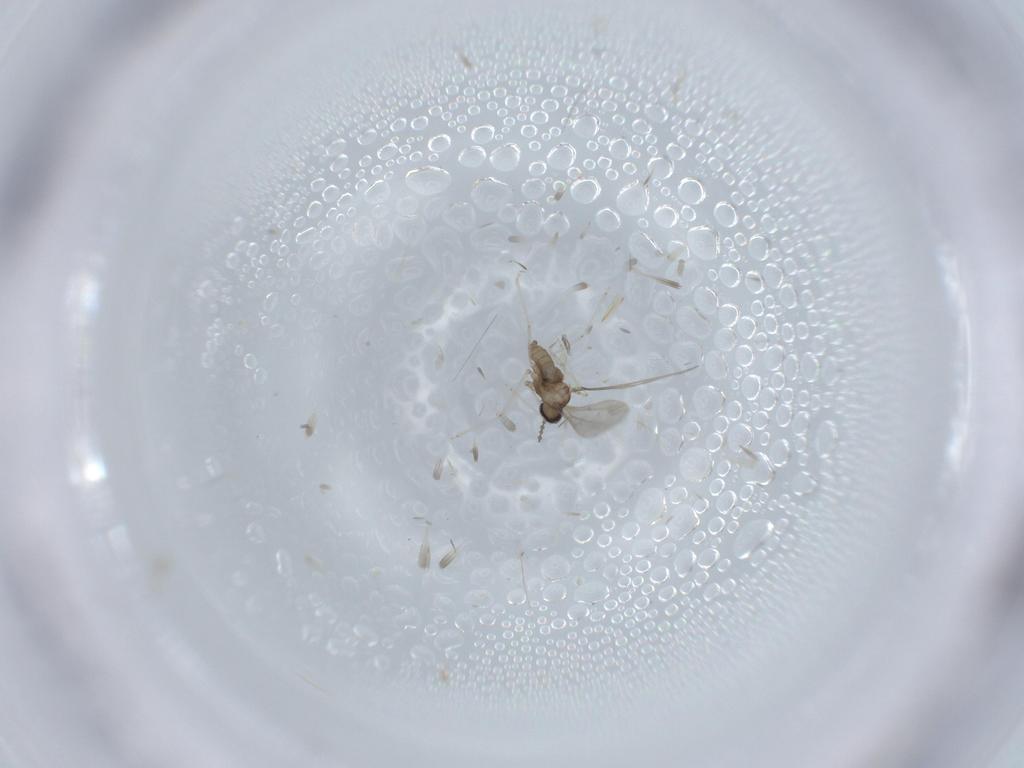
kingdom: Animalia
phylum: Arthropoda
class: Insecta
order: Diptera
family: Cecidomyiidae
